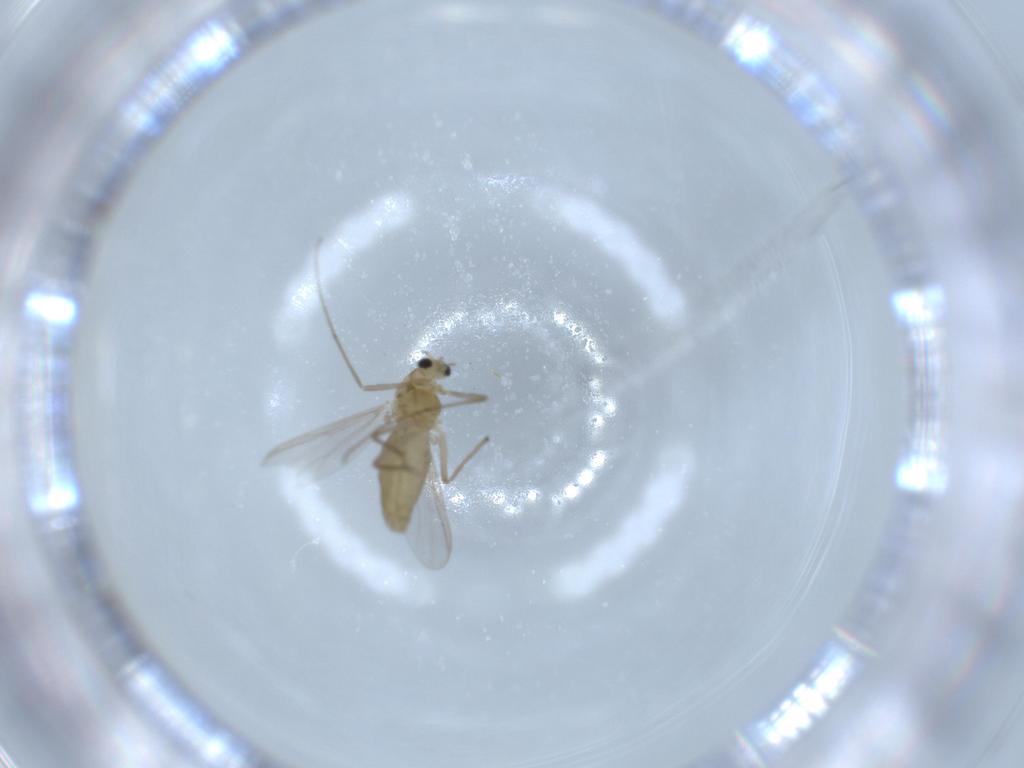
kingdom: Animalia
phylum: Arthropoda
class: Insecta
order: Diptera
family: Chironomidae
